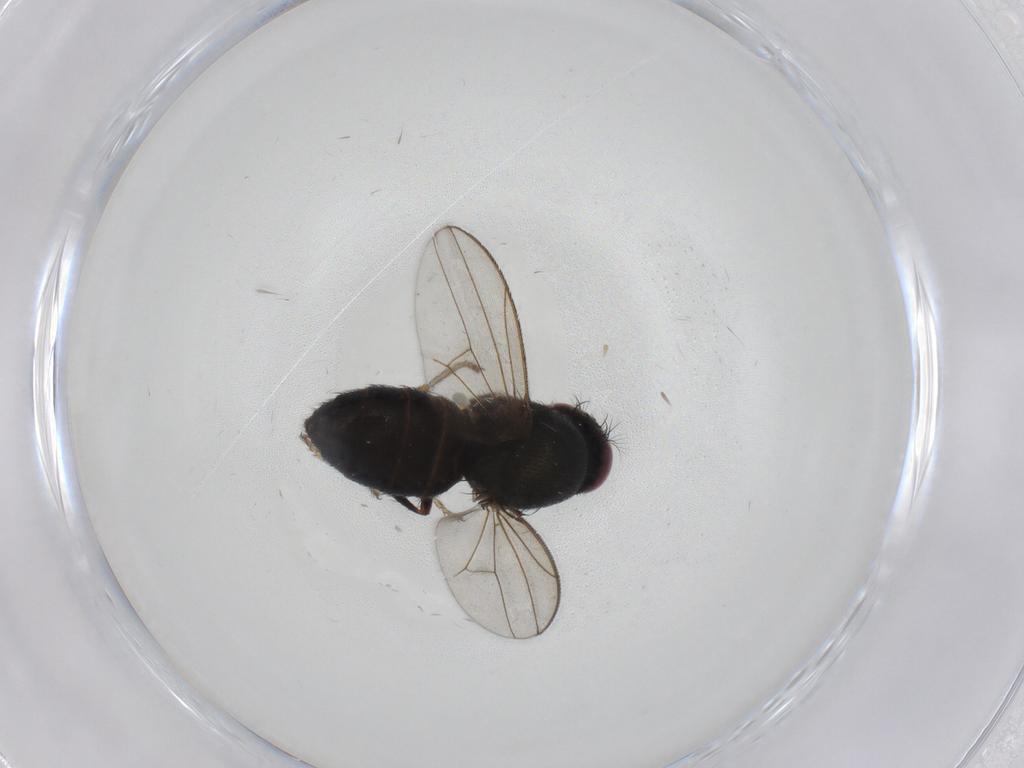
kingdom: Animalia
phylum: Arthropoda
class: Insecta
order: Diptera
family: Ephydridae
